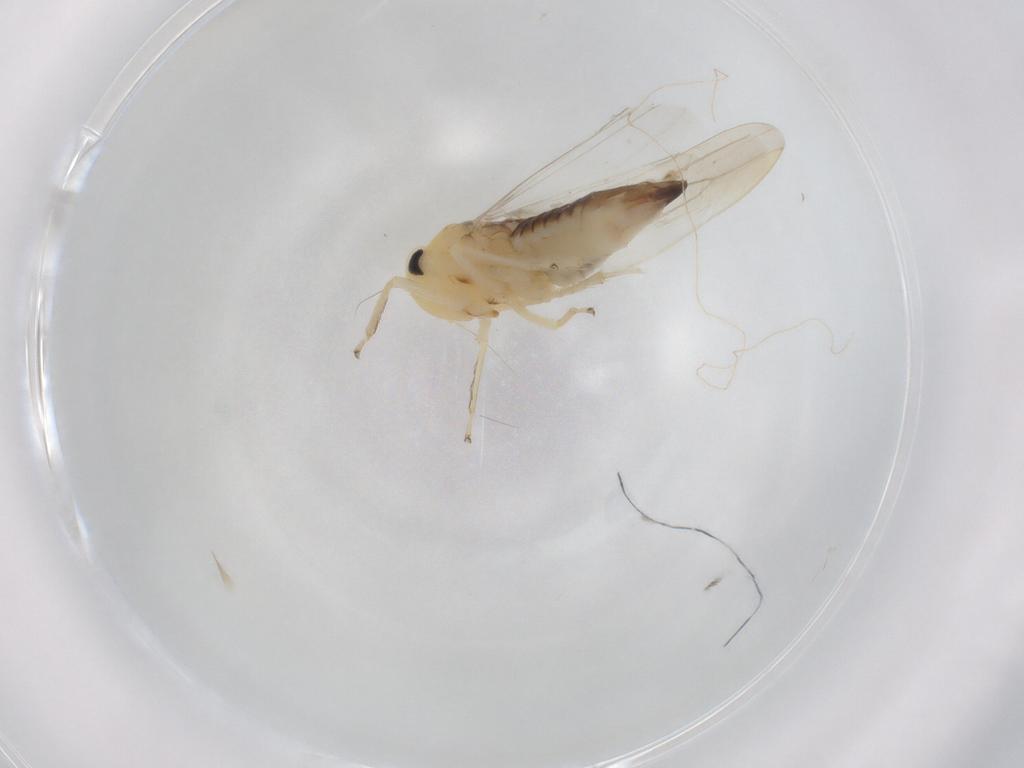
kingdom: Animalia
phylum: Arthropoda
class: Insecta
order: Hemiptera
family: Cicadellidae
